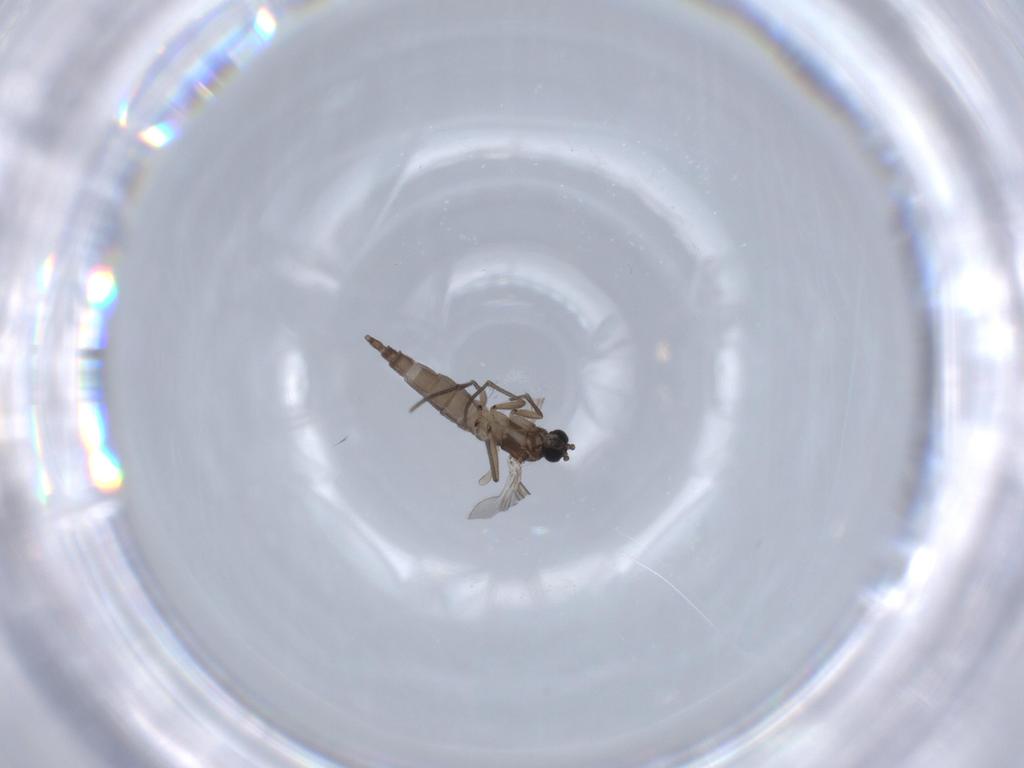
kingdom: Animalia
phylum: Arthropoda
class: Insecta
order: Diptera
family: Sciaridae
